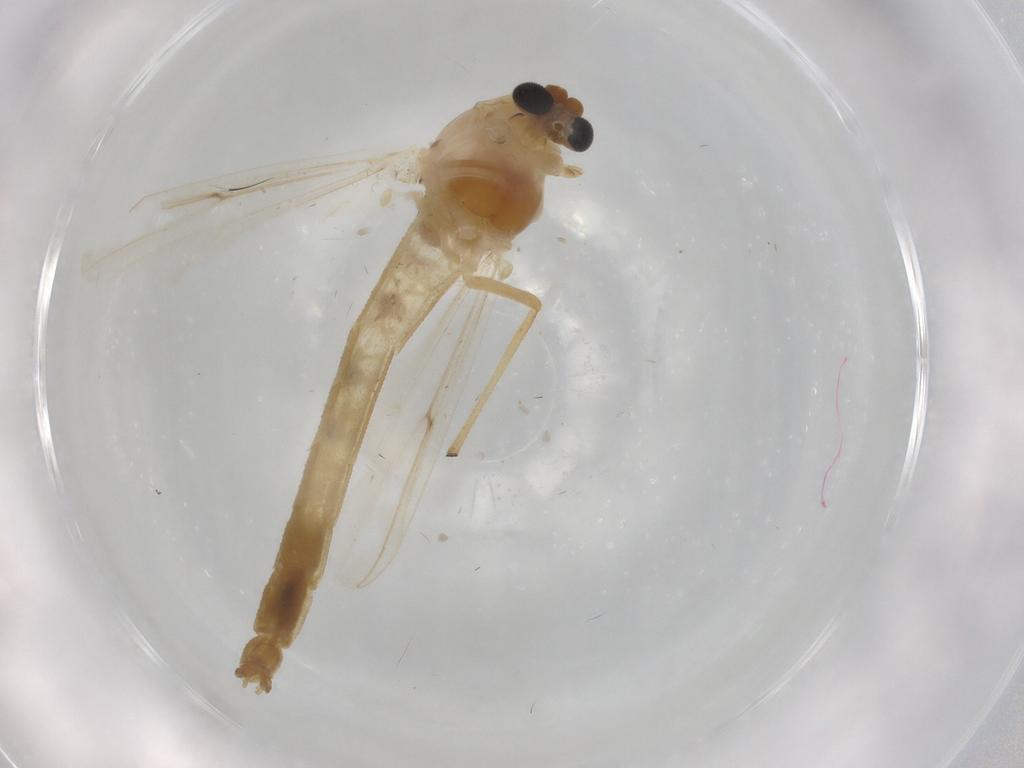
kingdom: Animalia
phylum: Arthropoda
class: Insecta
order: Diptera
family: Chironomidae
